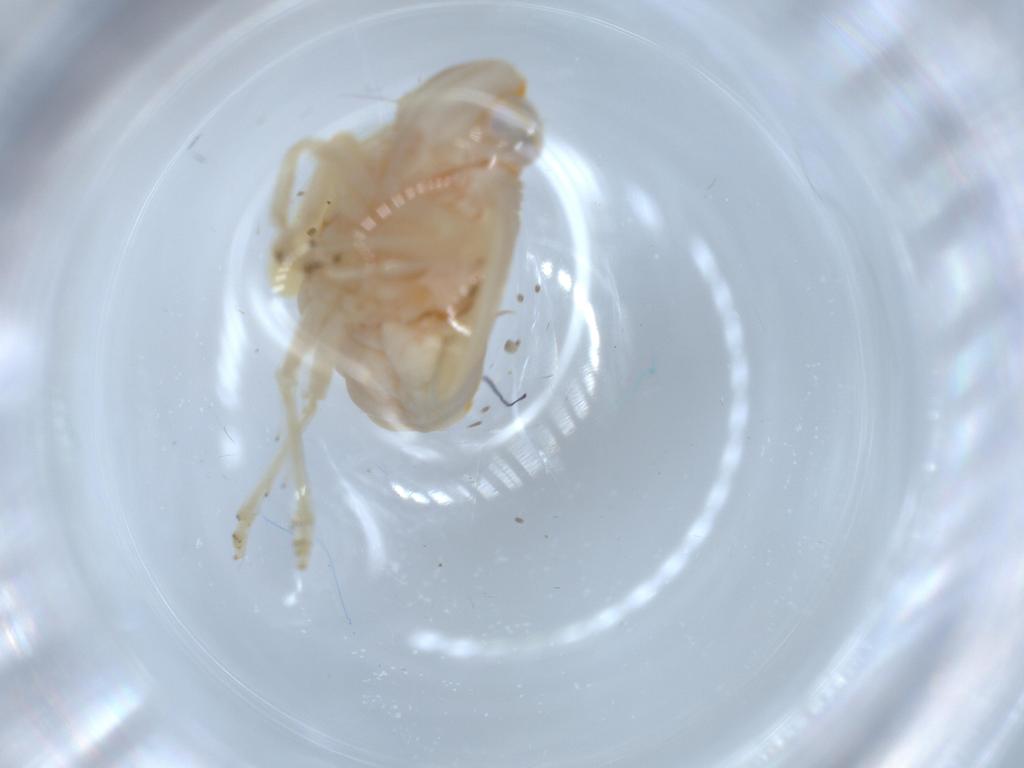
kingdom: Animalia
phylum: Arthropoda
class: Insecta
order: Hemiptera
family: Nogodinidae
